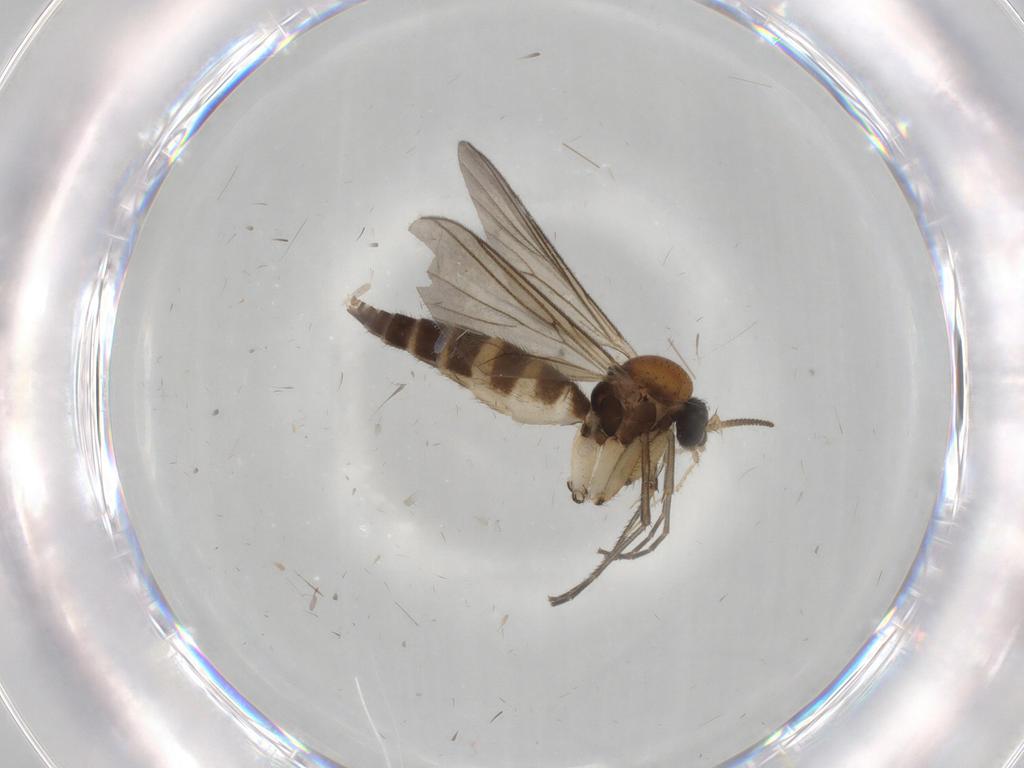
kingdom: Animalia
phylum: Arthropoda
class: Insecta
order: Diptera
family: Mycetophilidae
